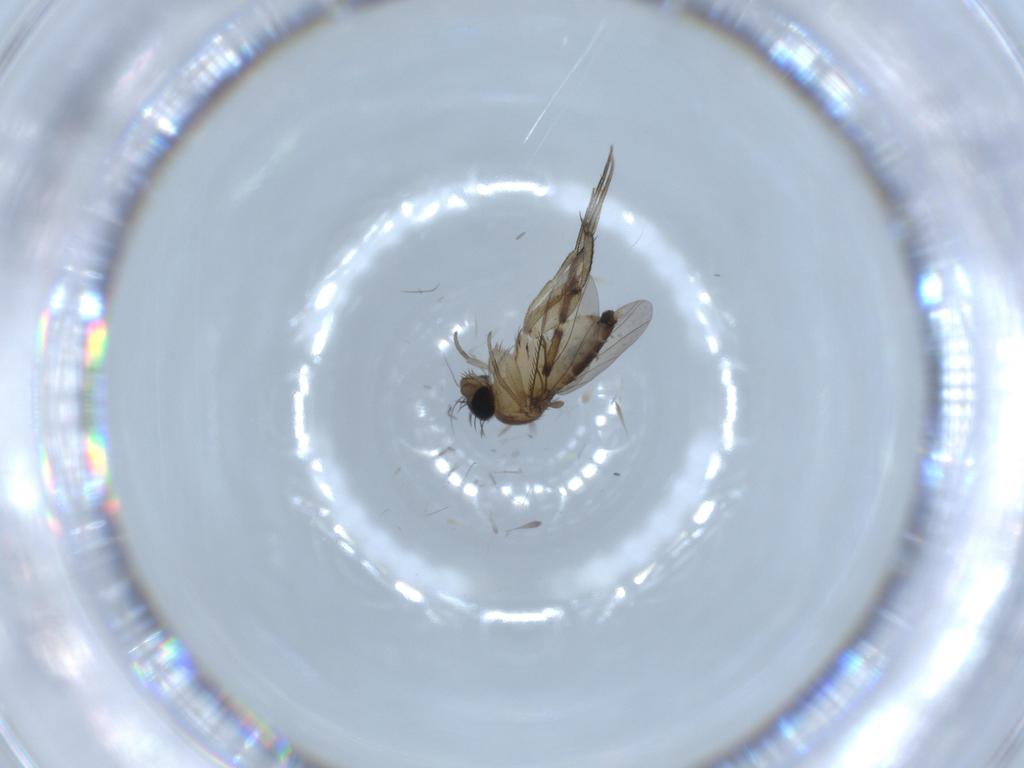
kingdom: Animalia
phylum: Arthropoda
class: Insecta
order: Diptera
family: Phoridae
